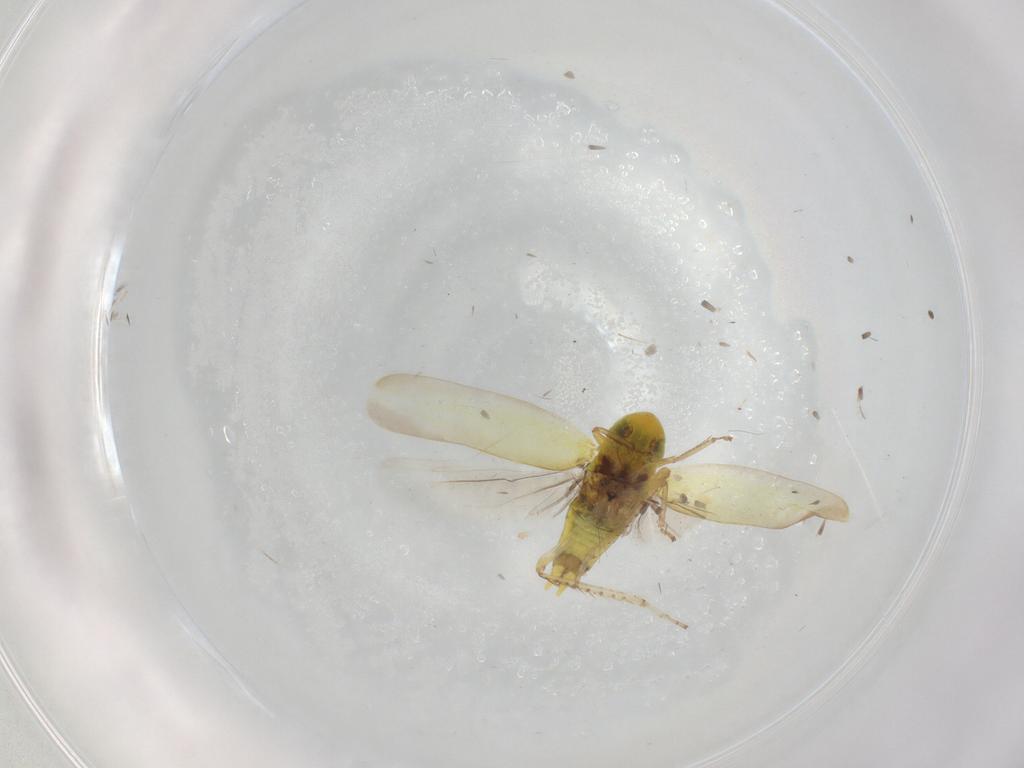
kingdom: Animalia
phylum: Arthropoda
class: Insecta
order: Hemiptera
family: Cicadellidae
